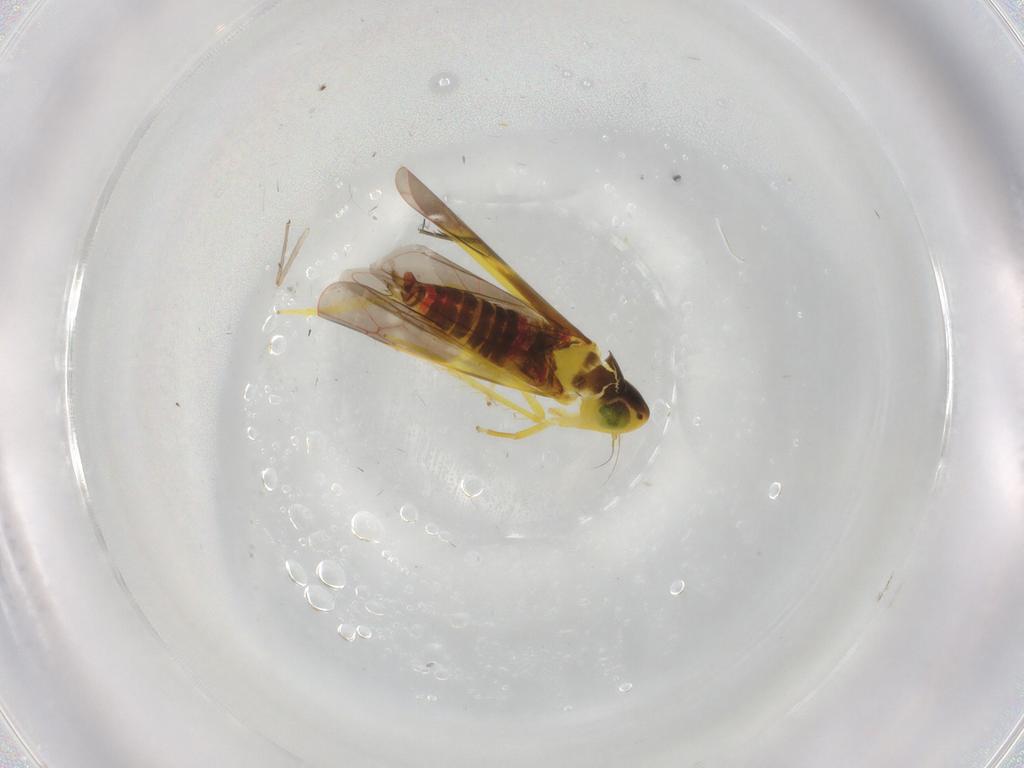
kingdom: Animalia
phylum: Arthropoda
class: Insecta
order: Hemiptera
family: Cicadellidae
